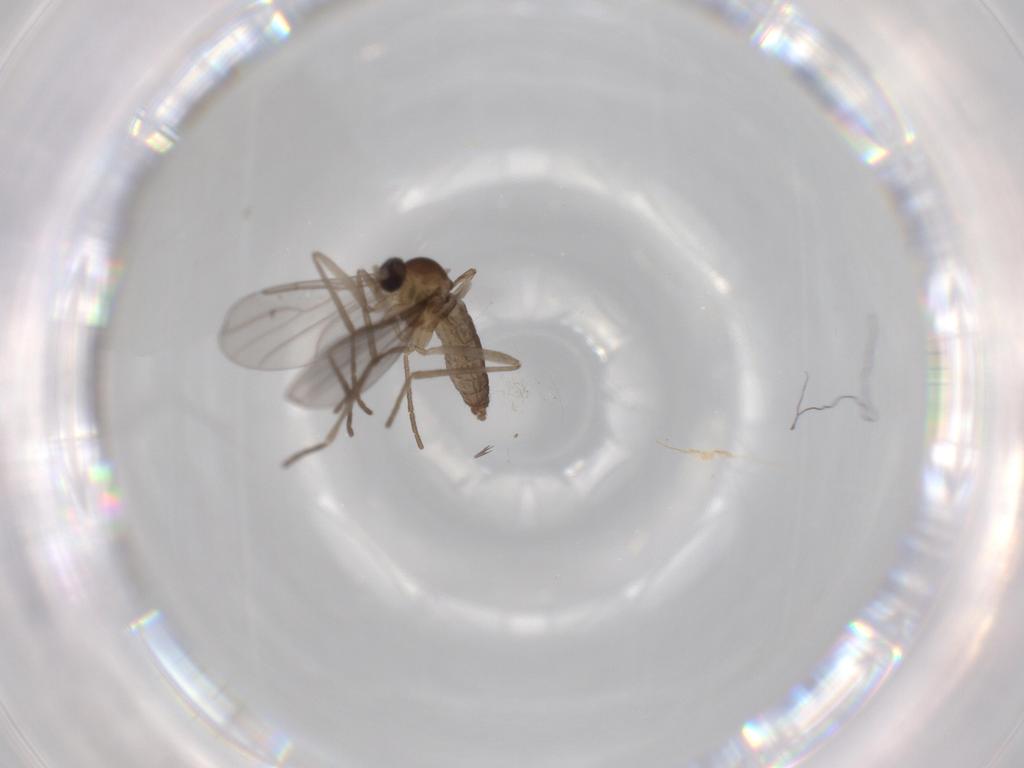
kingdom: Animalia
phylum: Arthropoda
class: Insecta
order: Diptera
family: Cecidomyiidae
